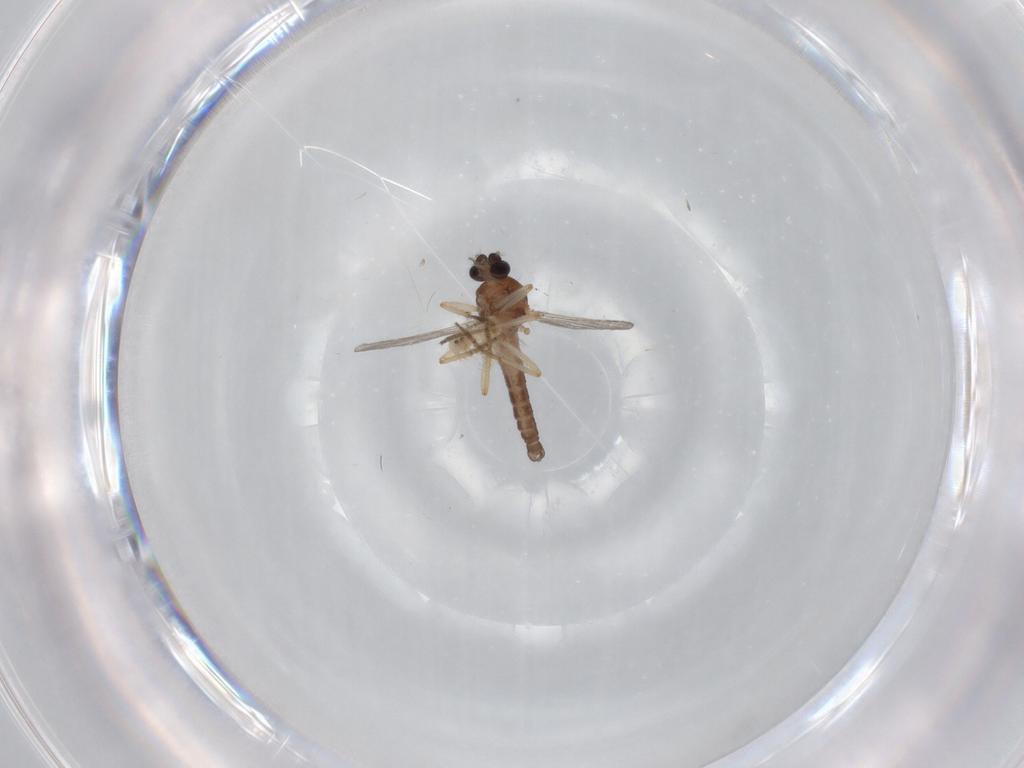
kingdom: Animalia
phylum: Arthropoda
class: Insecta
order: Diptera
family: Ceratopogonidae
